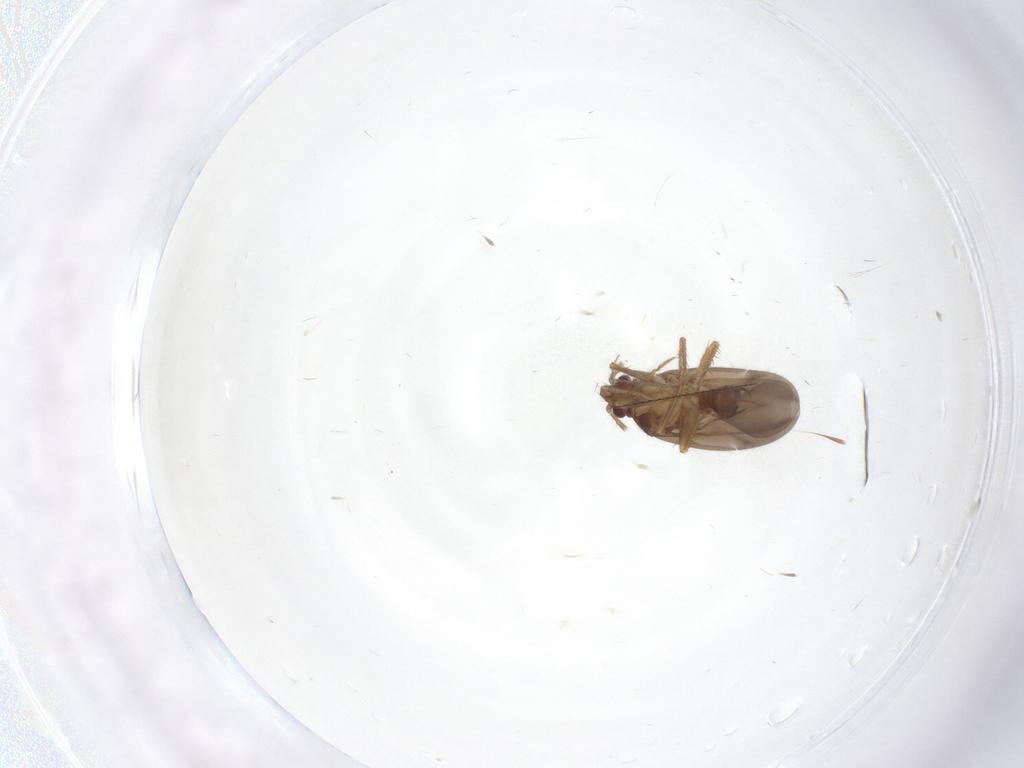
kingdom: Animalia
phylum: Arthropoda
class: Insecta
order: Hemiptera
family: Ceratocombidae
